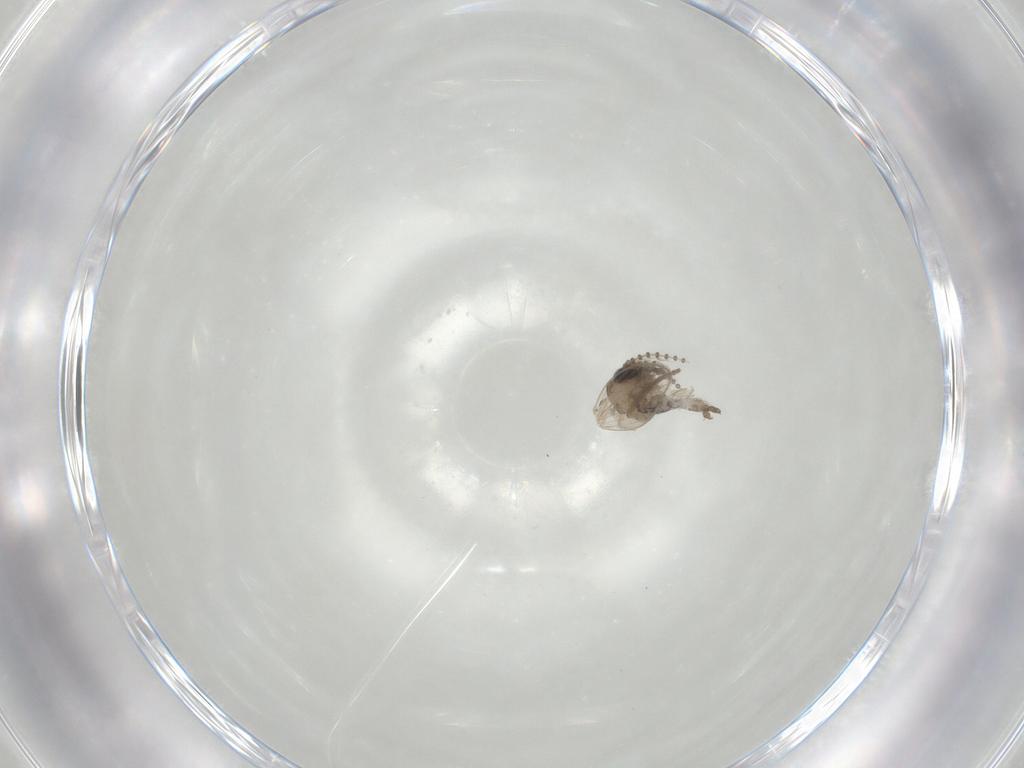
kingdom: Animalia
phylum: Arthropoda
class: Insecta
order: Diptera
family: Psychodidae
